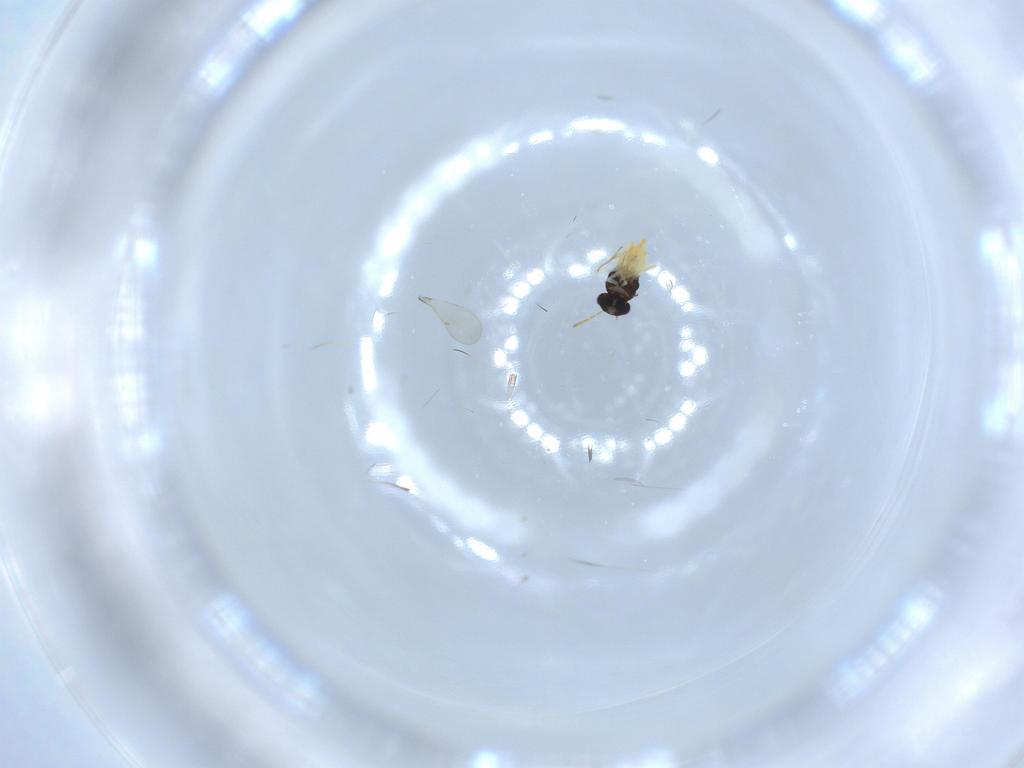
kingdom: Animalia
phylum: Arthropoda
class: Insecta
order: Hymenoptera
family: Aphelinidae
